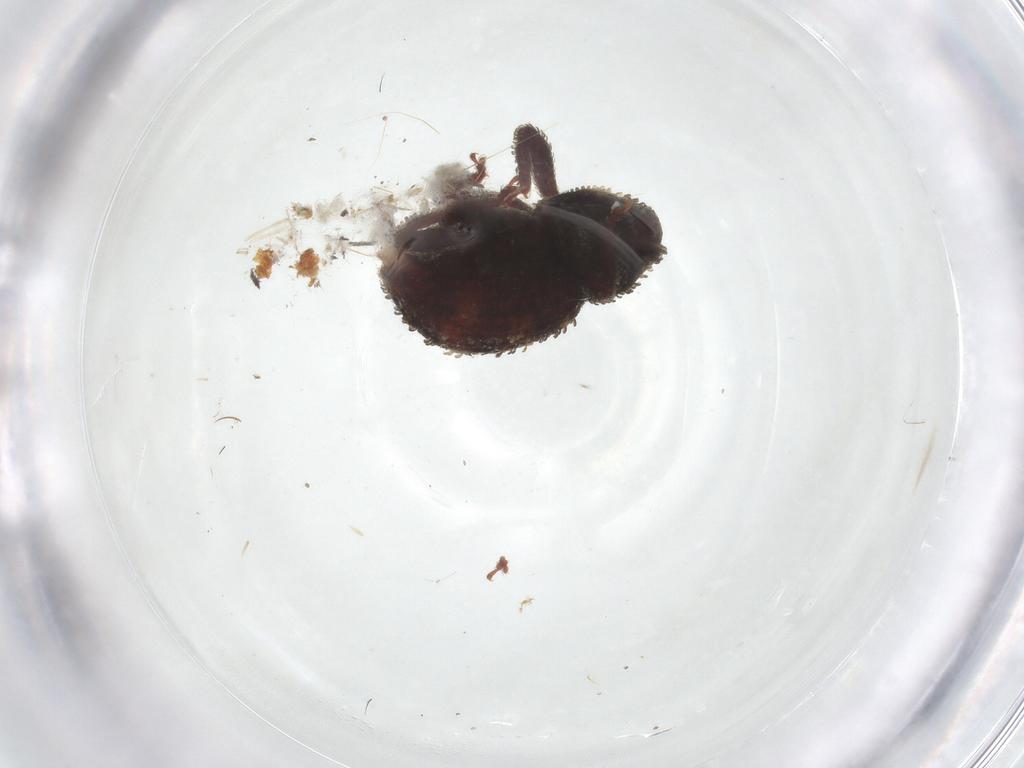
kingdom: Animalia
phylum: Arthropoda
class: Insecta
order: Coleoptera
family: Curculionidae
